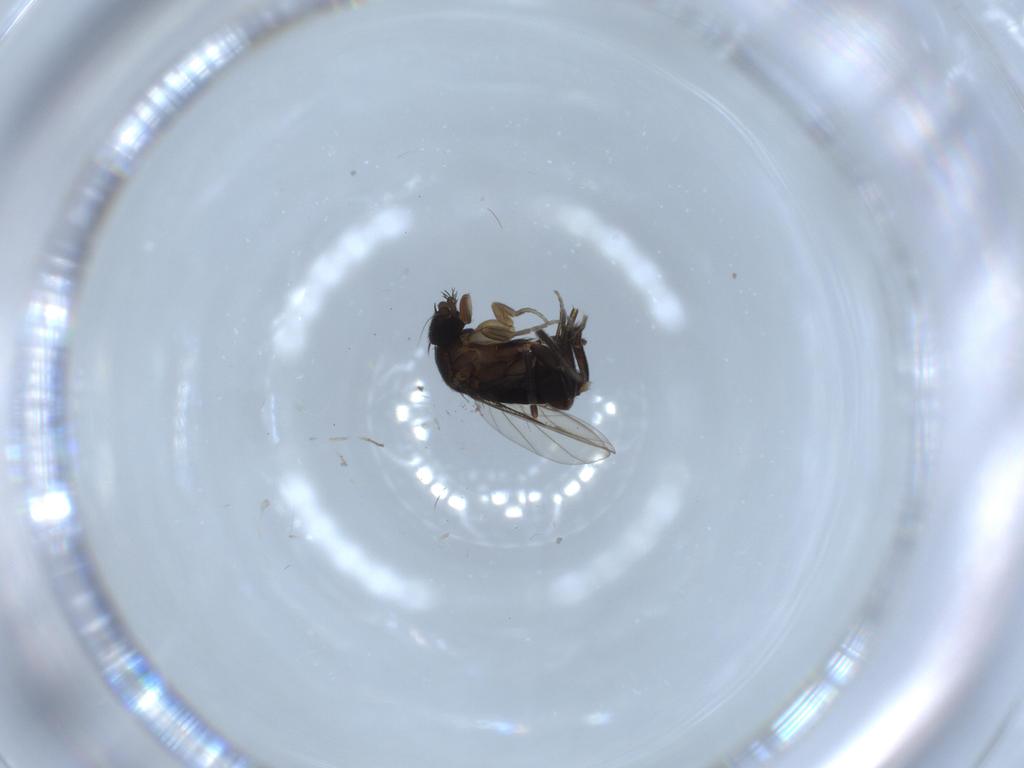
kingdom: Animalia
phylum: Arthropoda
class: Insecta
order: Diptera
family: Phoridae
